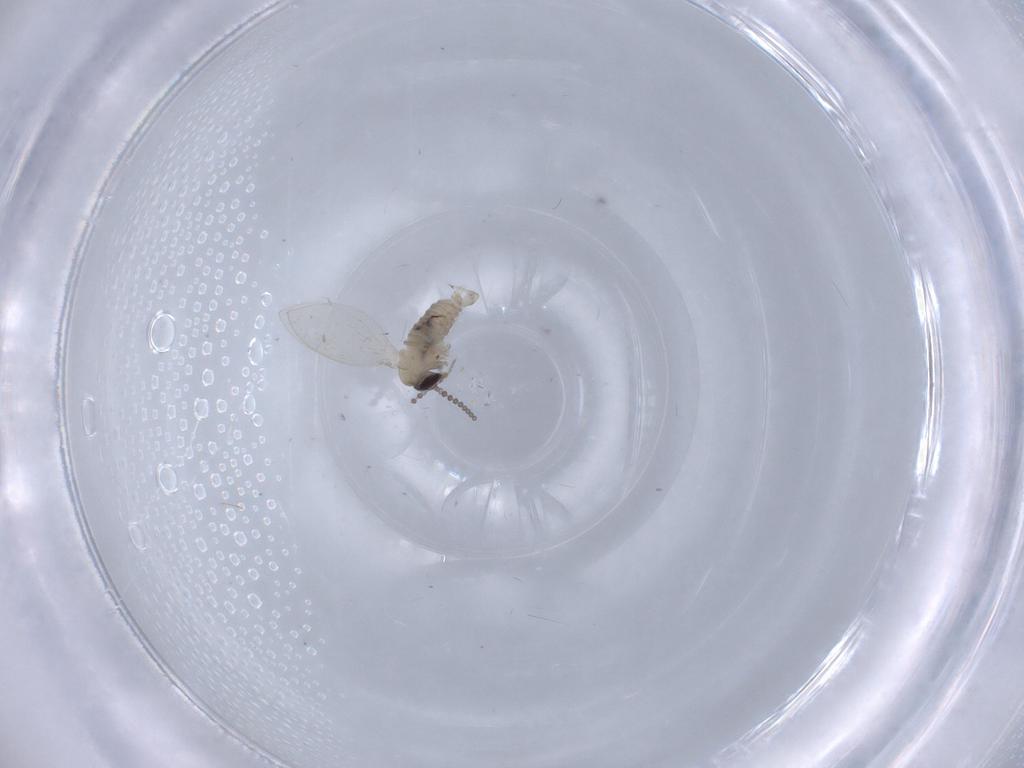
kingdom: Animalia
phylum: Arthropoda
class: Insecta
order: Diptera
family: Psychodidae
